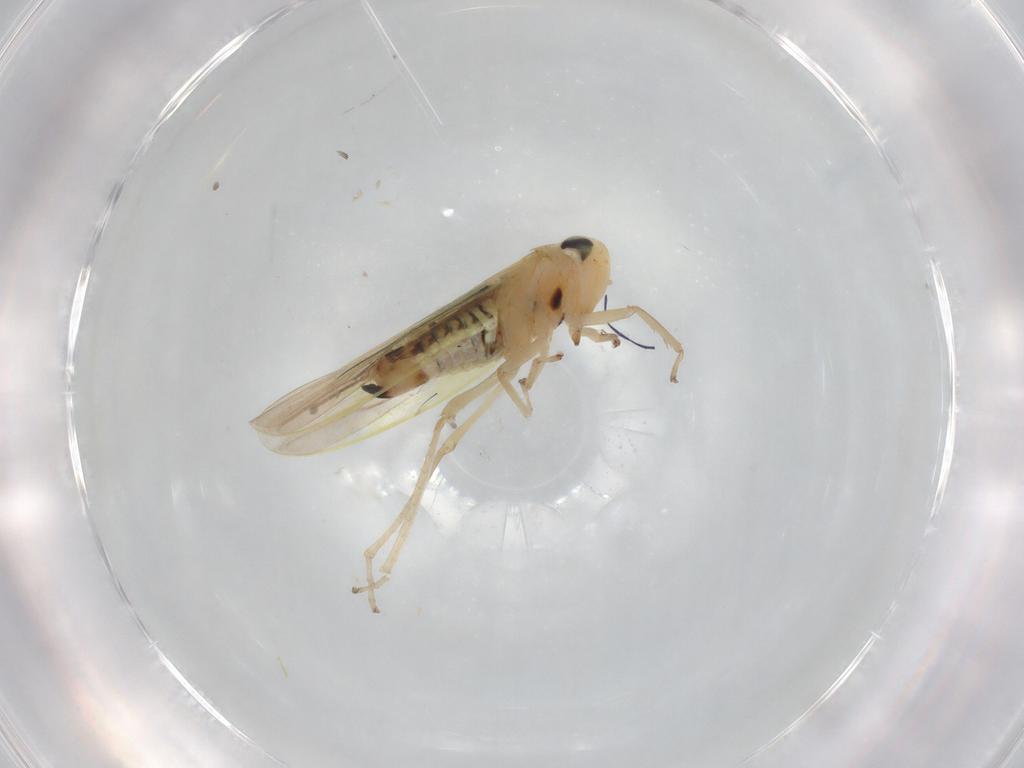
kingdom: Animalia
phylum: Arthropoda
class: Insecta
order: Hemiptera
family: Cicadellidae
